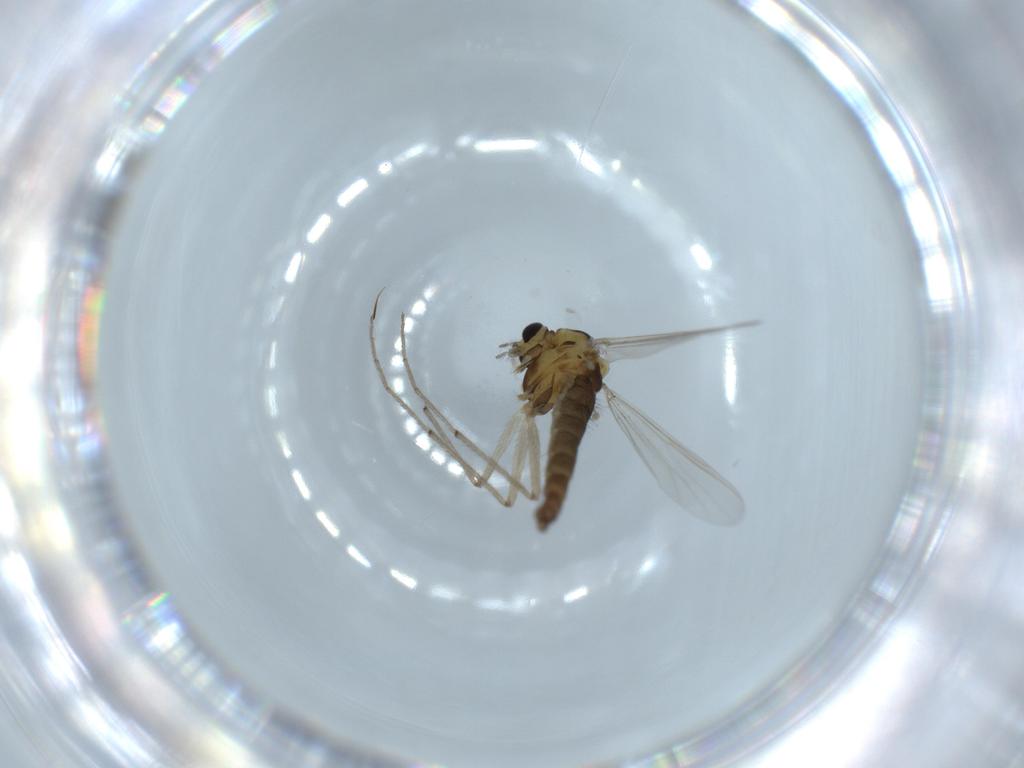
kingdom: Animalia
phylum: Arthropoda
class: Insecta
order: Diptera
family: Chironomidae
